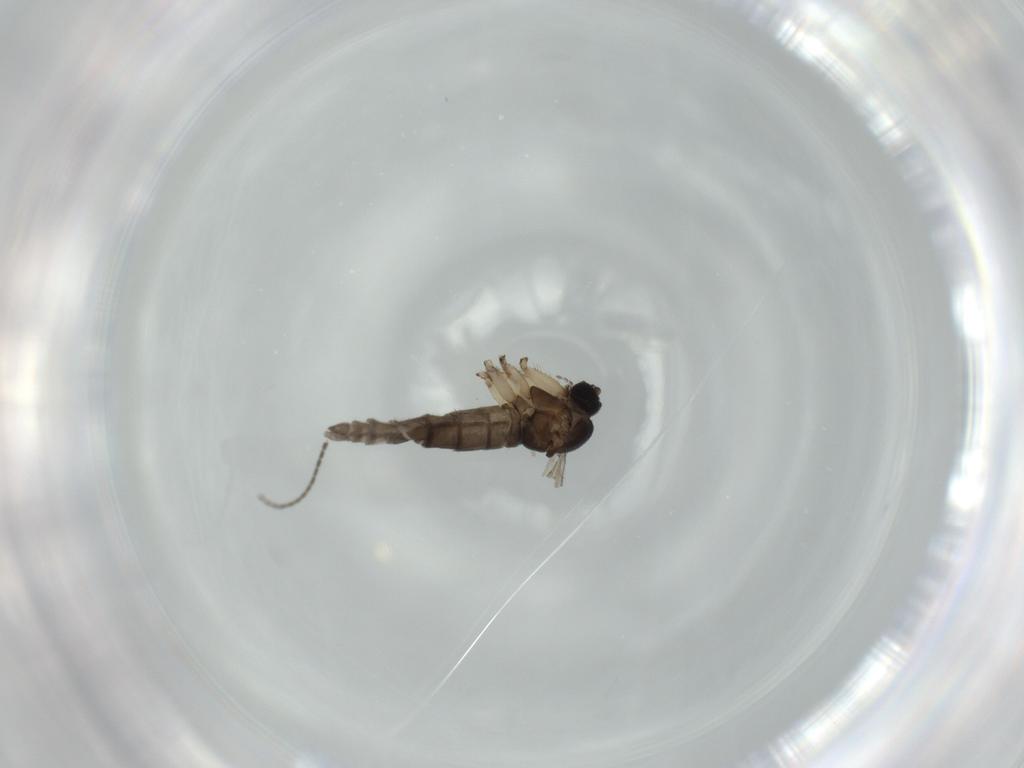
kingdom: Animalia
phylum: Arthropoda
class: Insecta
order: Diptera
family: Sciaridae
